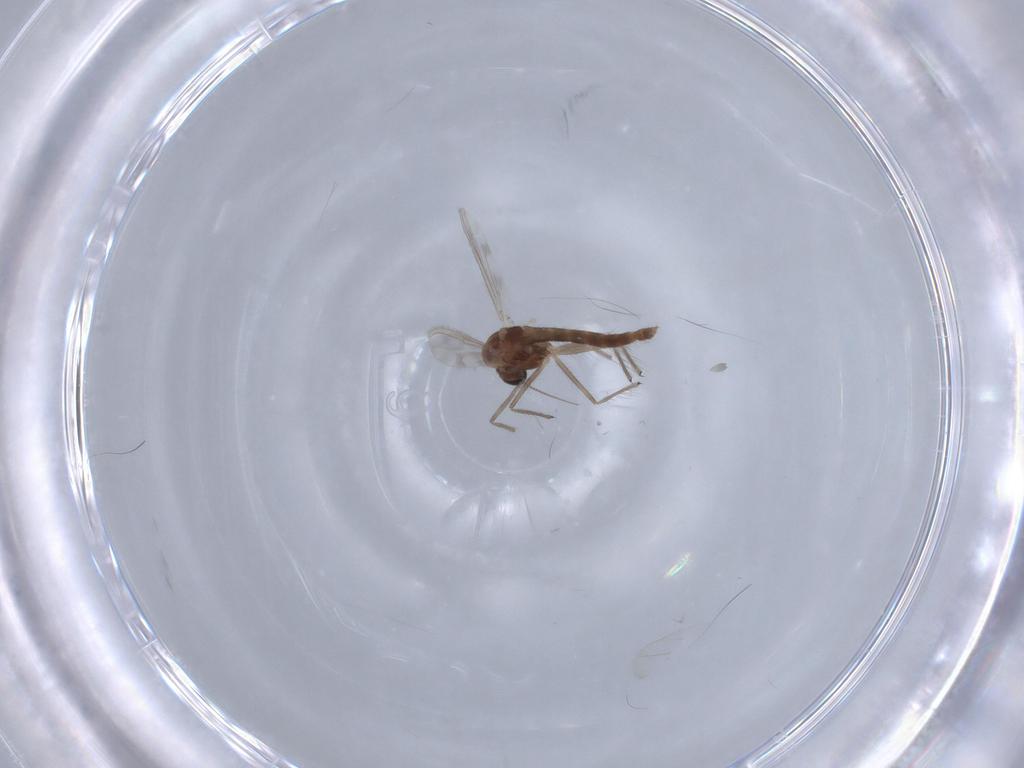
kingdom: Animalia
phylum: Arthropoda
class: Insecta
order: Diptera
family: Chironomidae
